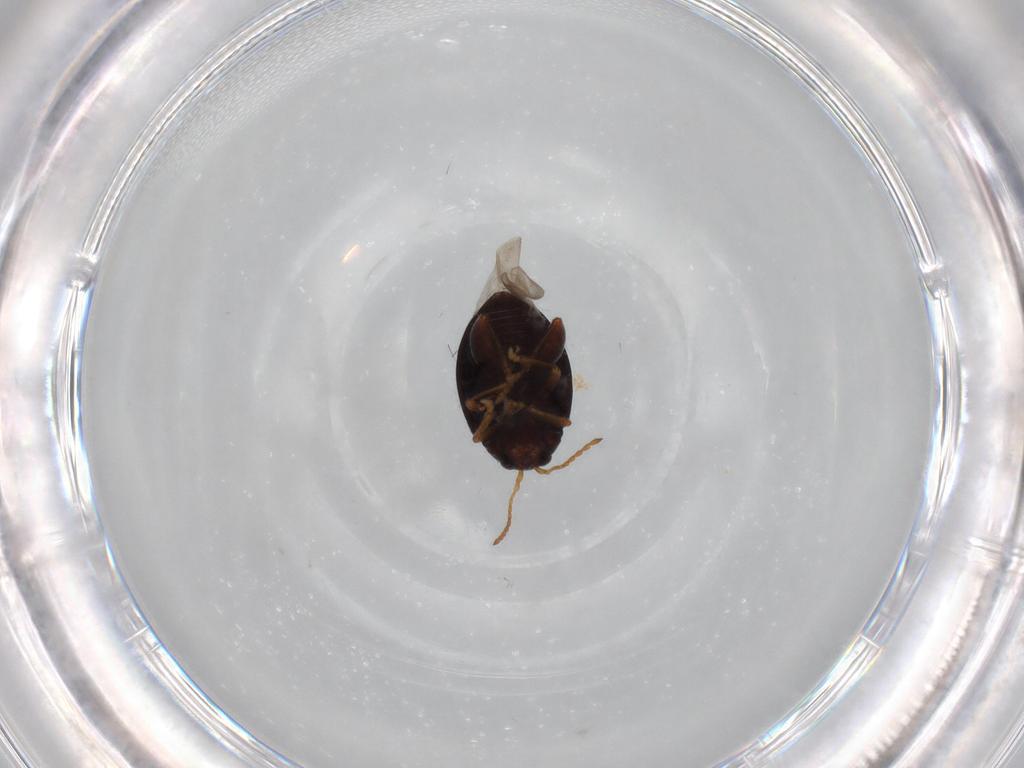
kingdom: Animalia
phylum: Arthropoda
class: Insecta
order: Coleoptera
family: Chrysomelidae
